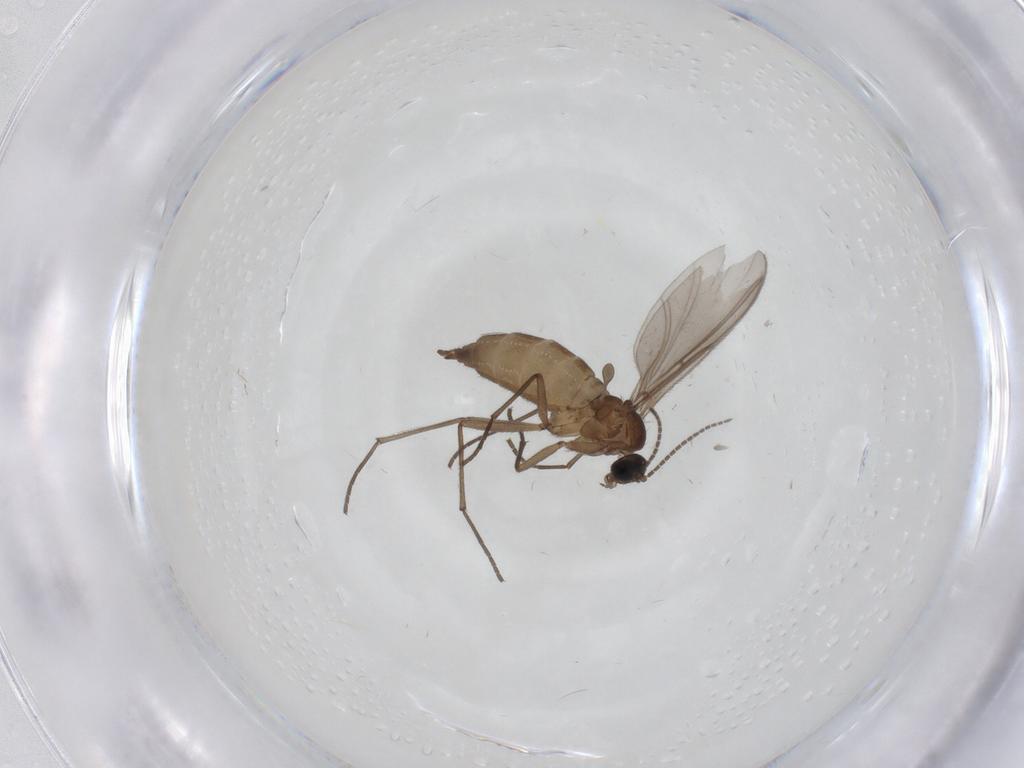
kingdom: Animalia
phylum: Arthropoda
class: Insecta
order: Diptera
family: Sciaridae
